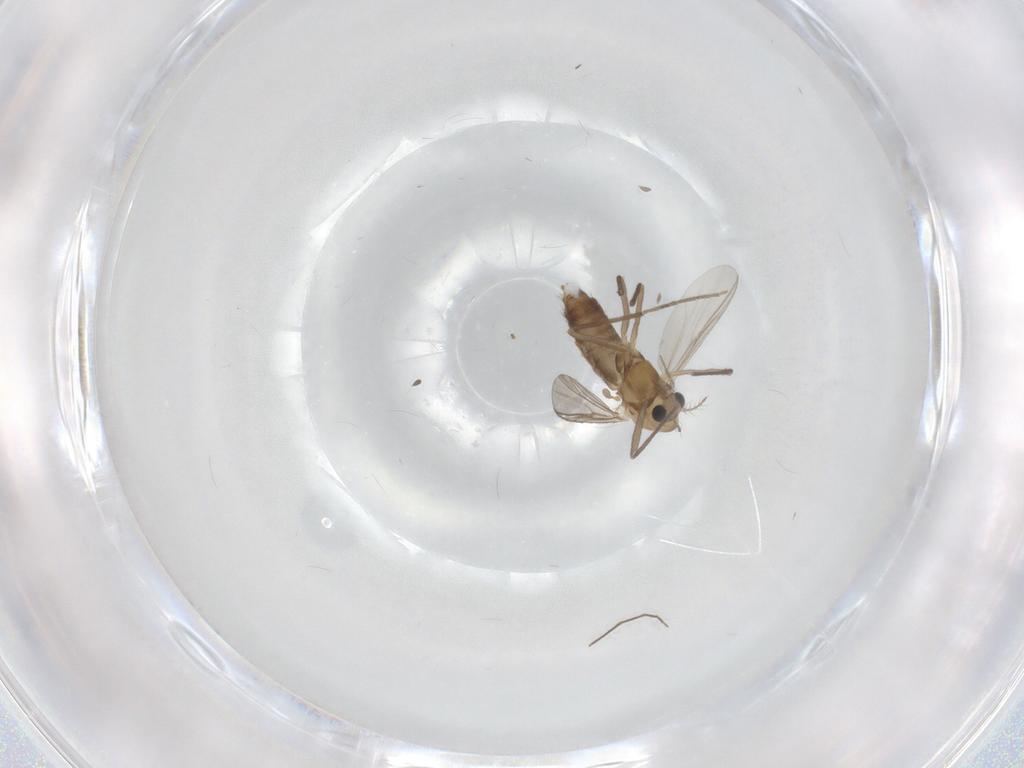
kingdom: Animalia
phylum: Arthropoda
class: Insecta
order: Diptera
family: Chironomidae
